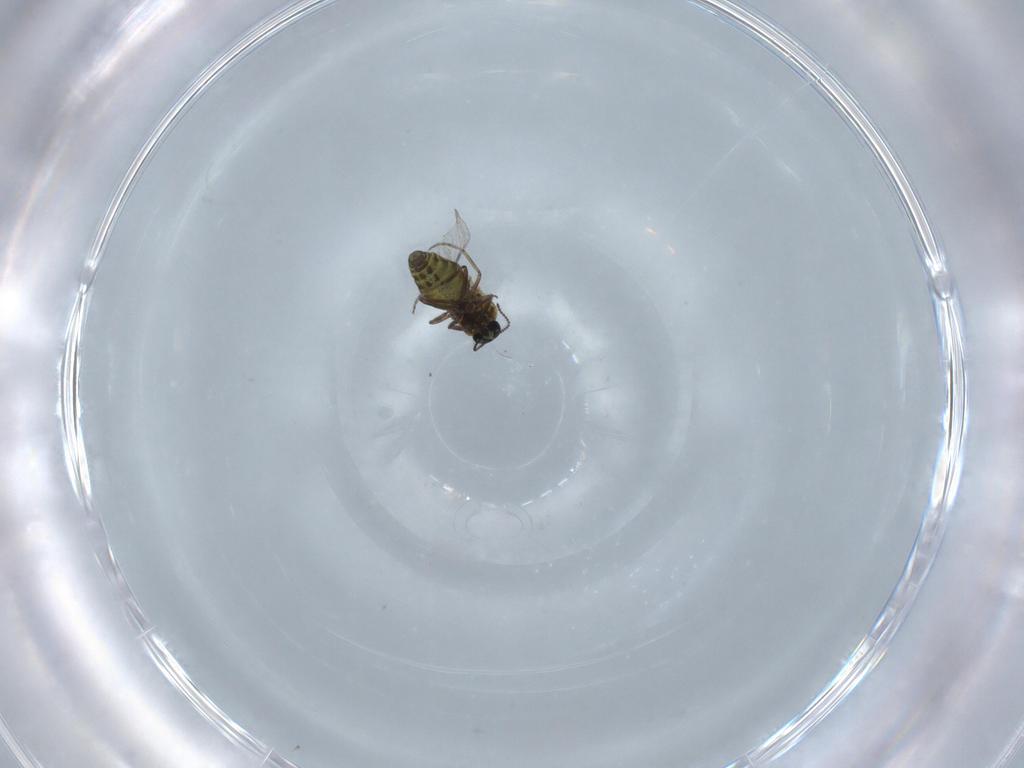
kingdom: Animalia
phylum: Arthropoda
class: Insecta
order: Diptera
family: Ceratopogonidae
